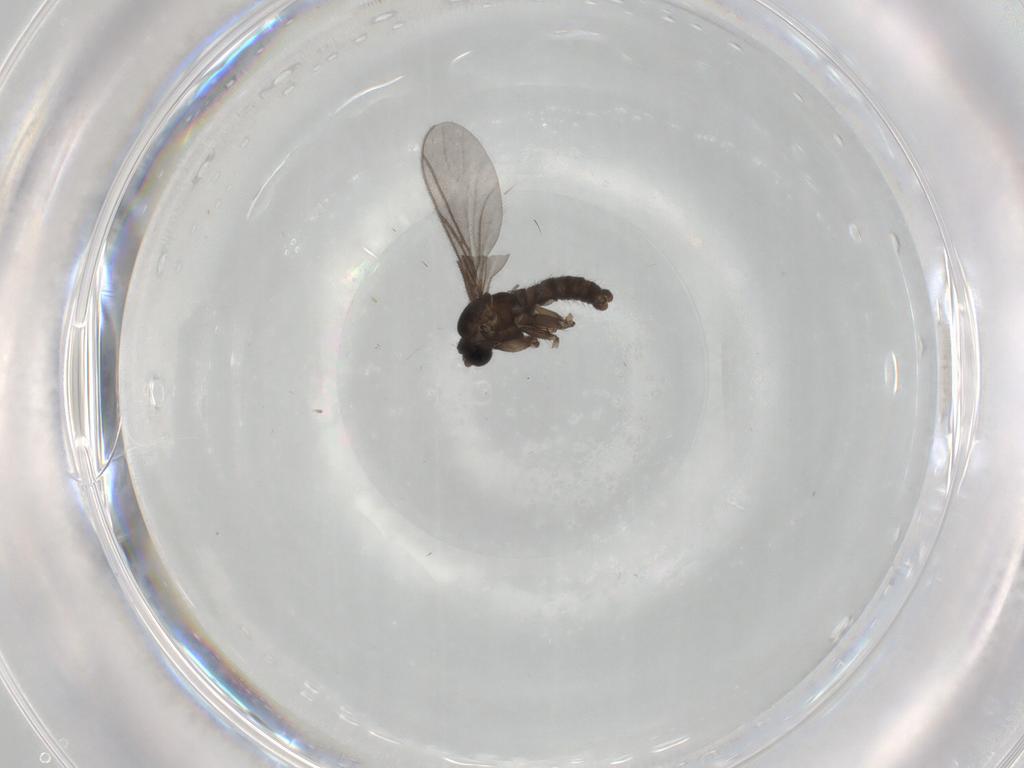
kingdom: Animalia
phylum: Arthropoda
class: Insecta
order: Diptera
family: Sciaridae
